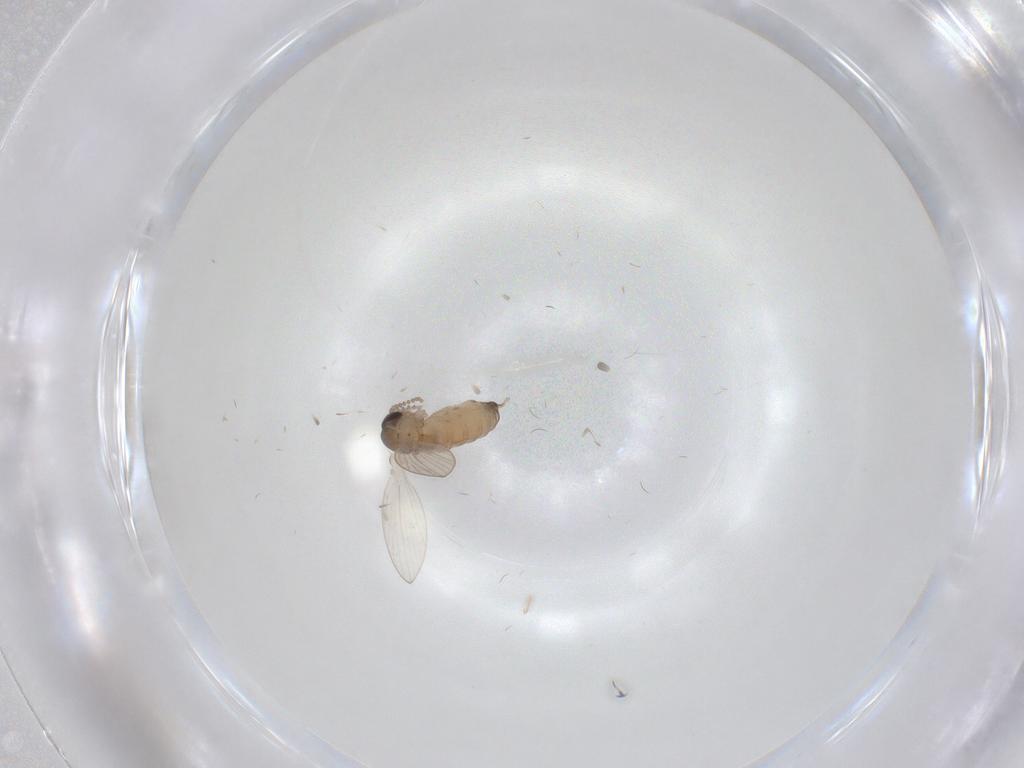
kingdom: Animalia
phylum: Arthropoda
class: Insecta
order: Diptera
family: Psychodidae
